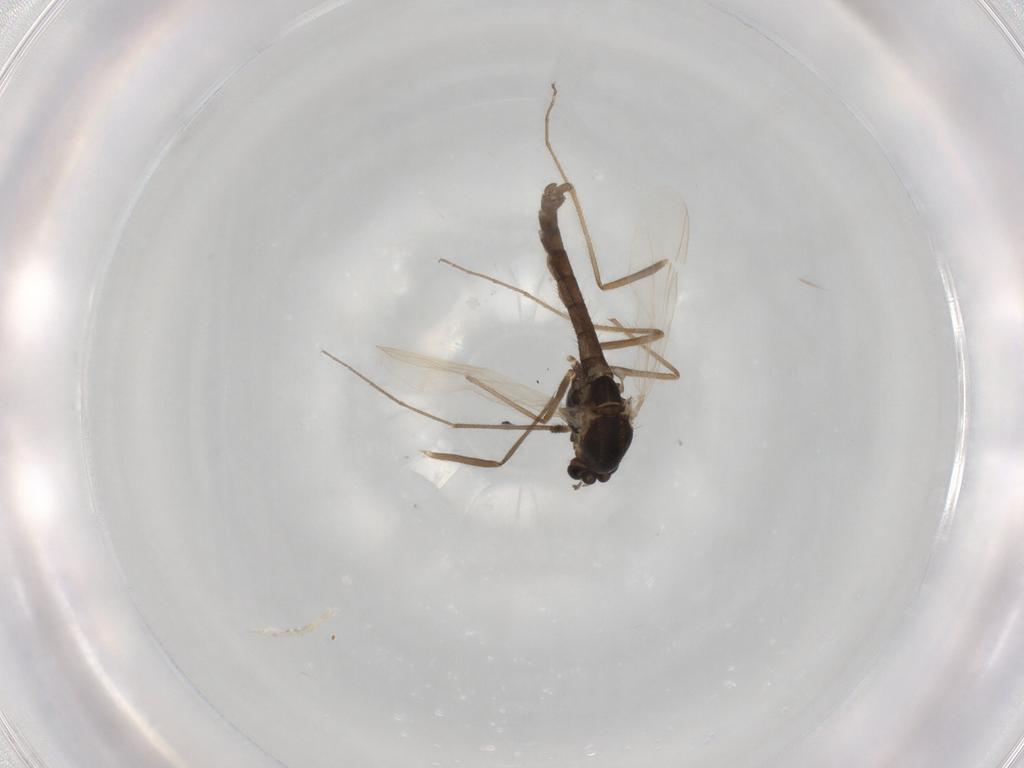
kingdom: Animalia
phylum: Arthropoda
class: Insecta
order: Diptera
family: Chironomidae
